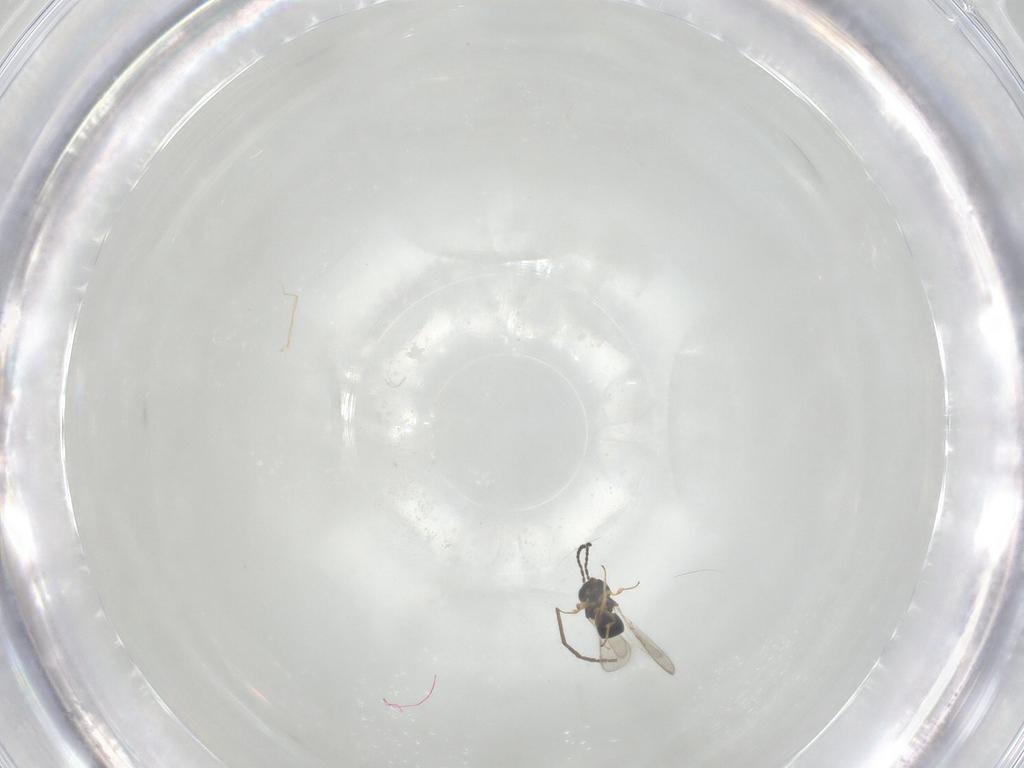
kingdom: Animalia
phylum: Arthropoda
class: Insecta
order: Hymenoptera
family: Scelionidae
